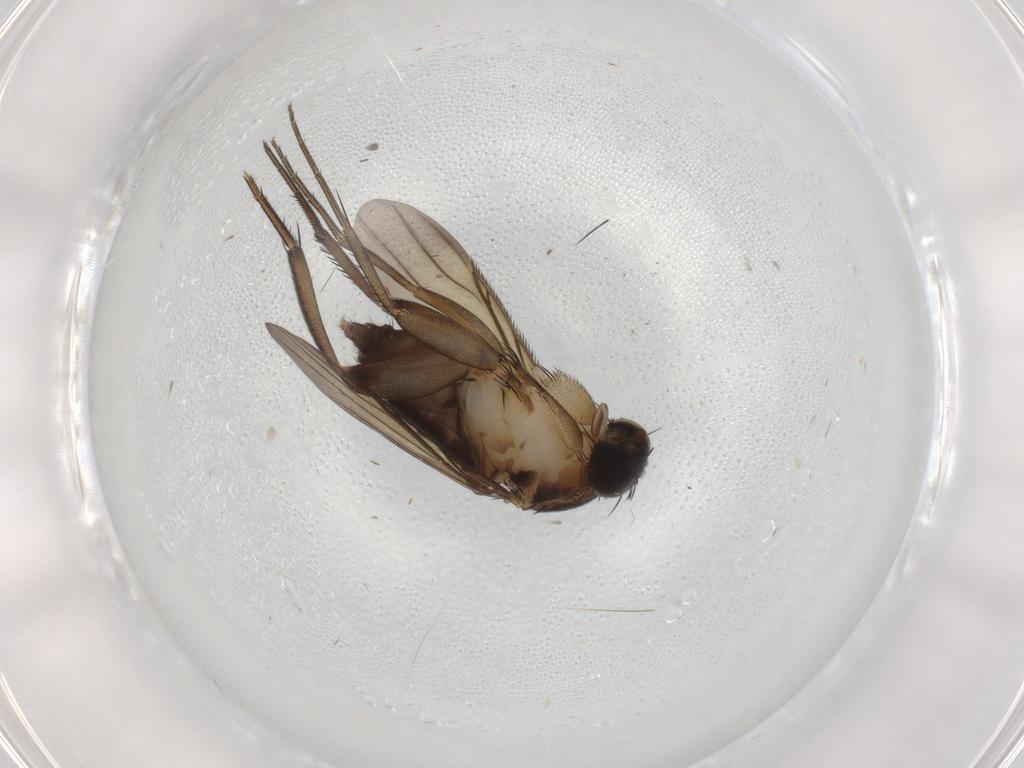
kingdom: Animalia
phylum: Arthropoda
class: Insecta
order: Diptera
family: Phoridae
